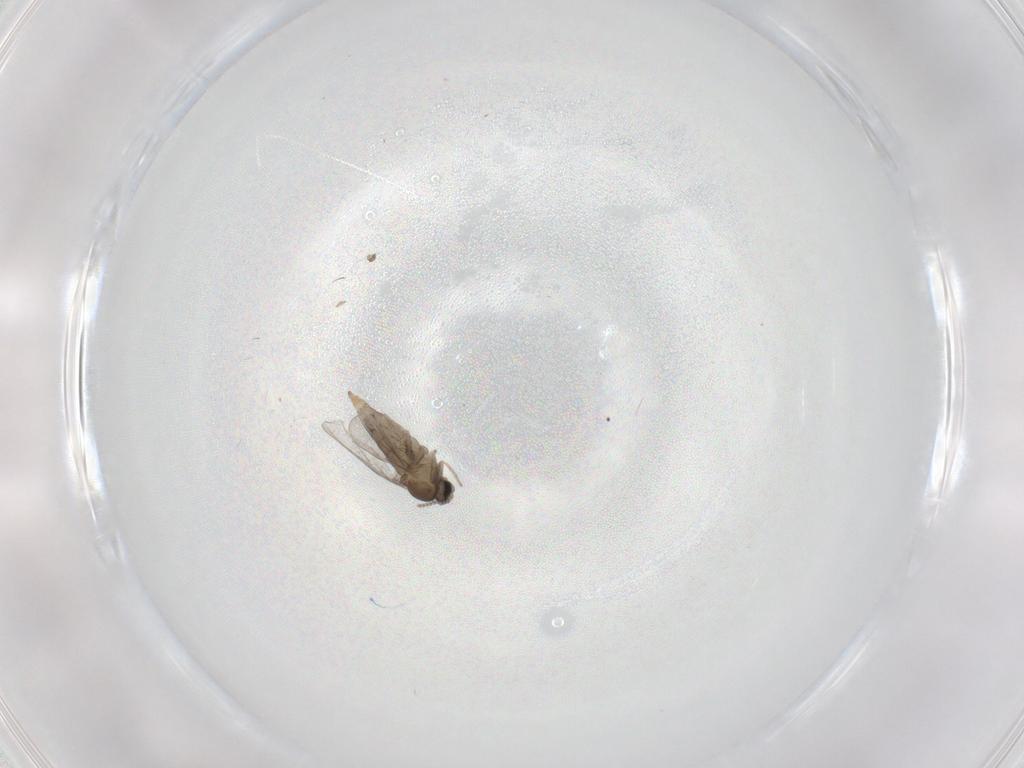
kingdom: Animalia
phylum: Arthropoda
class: Insecta
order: Diptera
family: Cecidomyiidae
